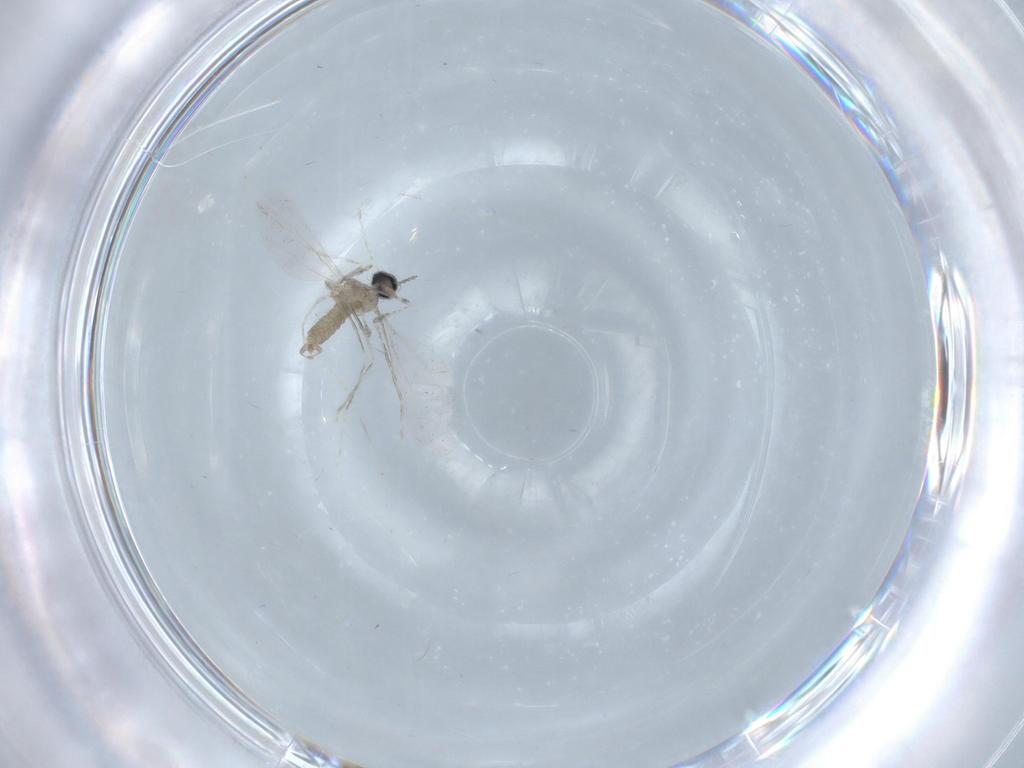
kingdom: Animalia
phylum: Arthropoda
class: Insecta
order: Diptera
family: Cecidomyiidae
